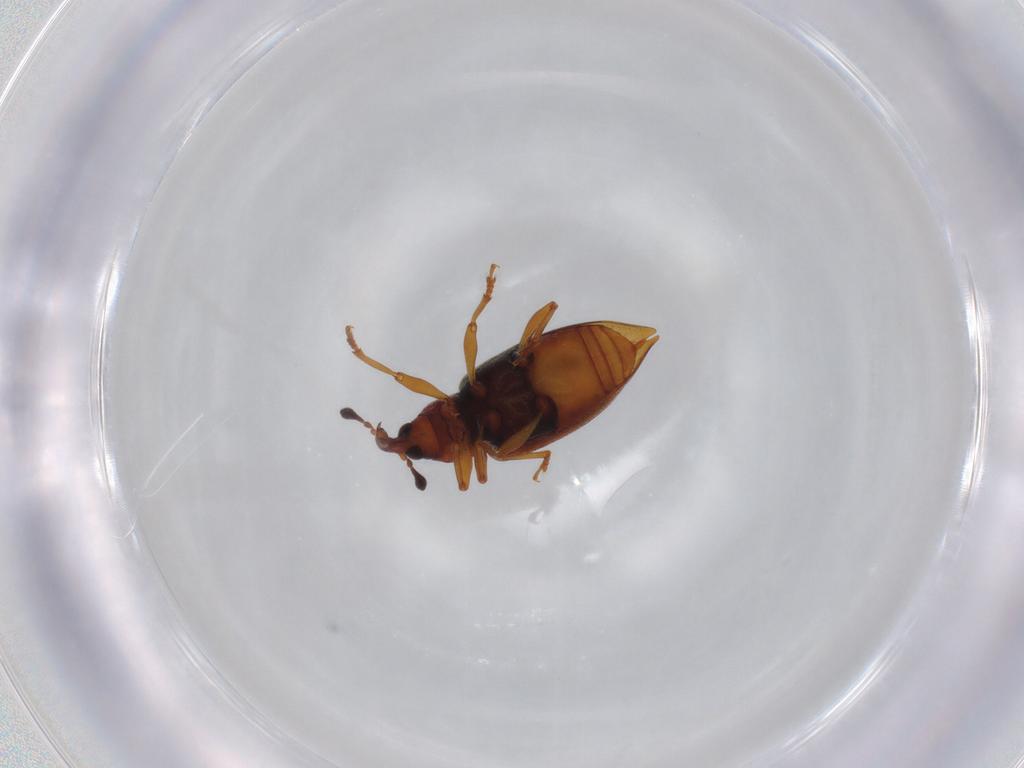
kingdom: Animalia
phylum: Arthropoda
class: Insecta
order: Coleoptera
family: Curculionidae
